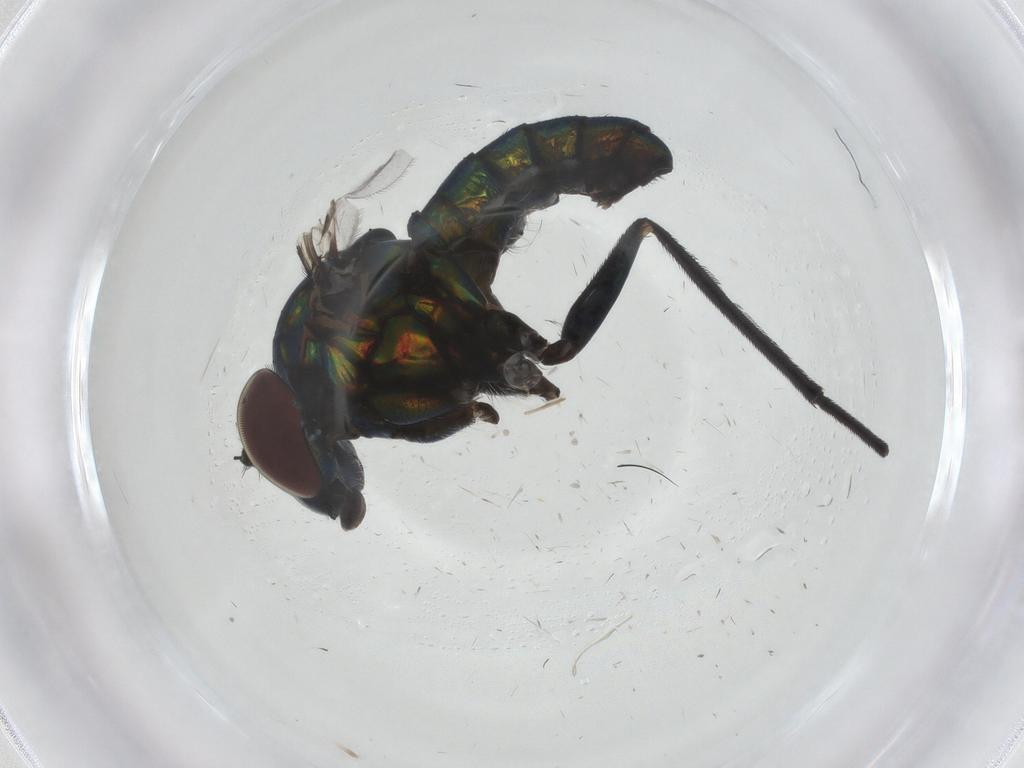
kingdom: Animalia
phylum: Arthropoda
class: Insecta
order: Diptera
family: Dolichopodidae
